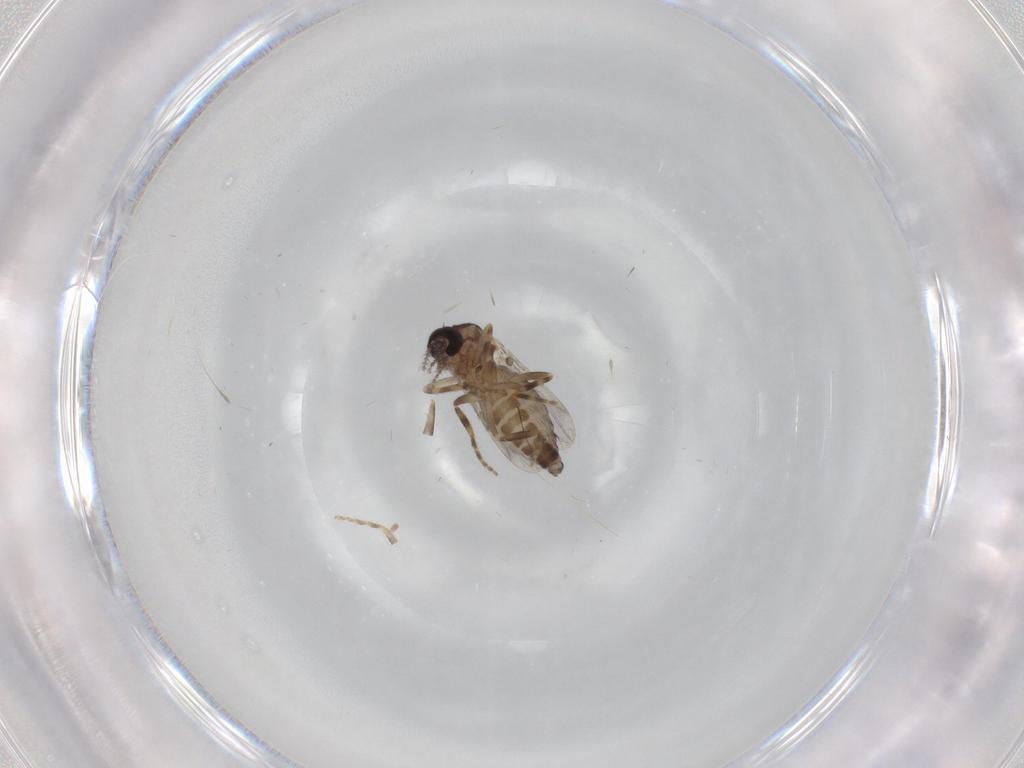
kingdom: Animalia
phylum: Arthropoda
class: Insecta
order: Diptera
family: Ceratopogonidae
